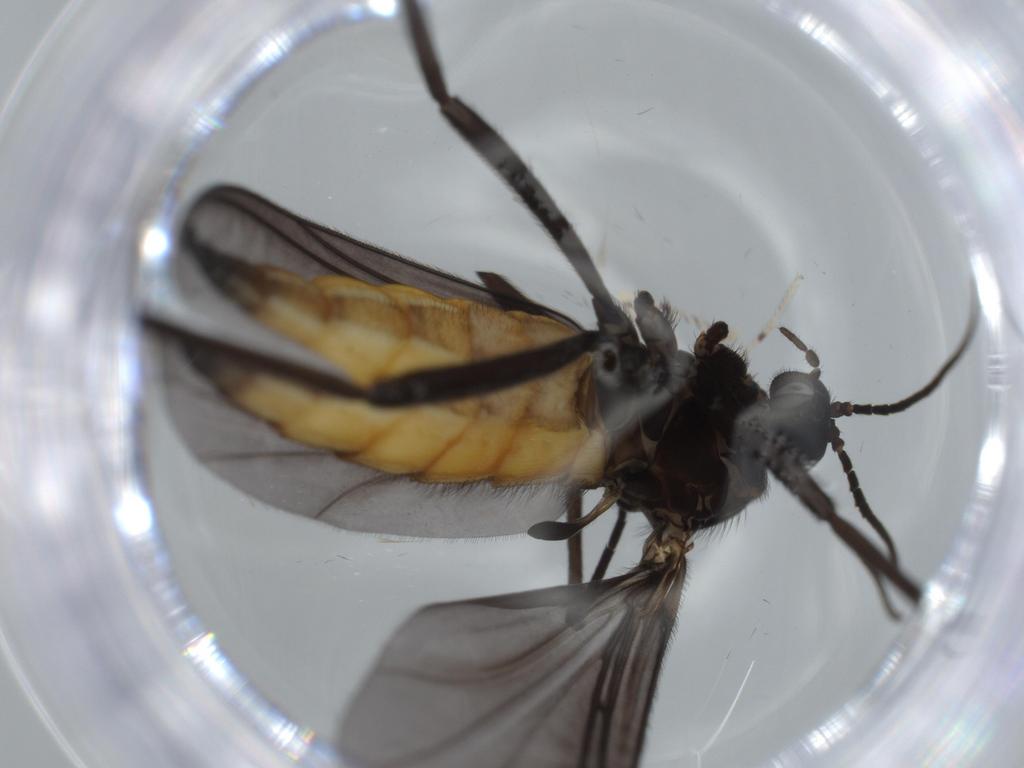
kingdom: Animalia
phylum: Arthropoda
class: Insecta
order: Diptera
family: Sciaridae
